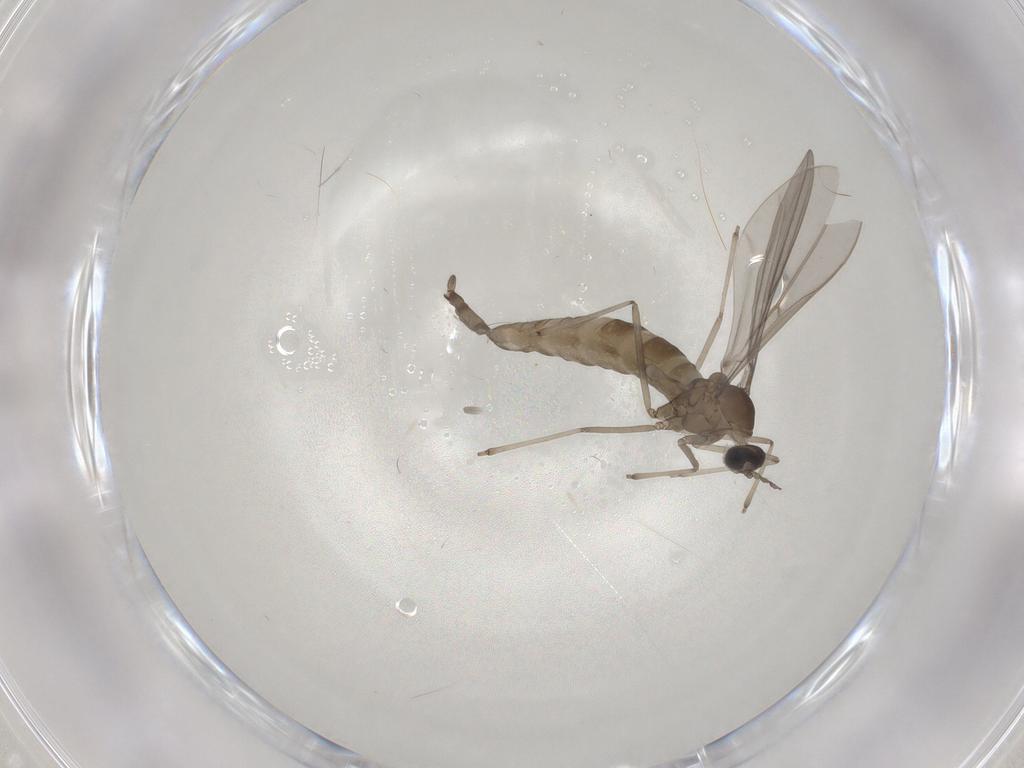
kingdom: Animalia
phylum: Arthropoda
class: Insecta
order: Diptera
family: Cecidomyiidae
